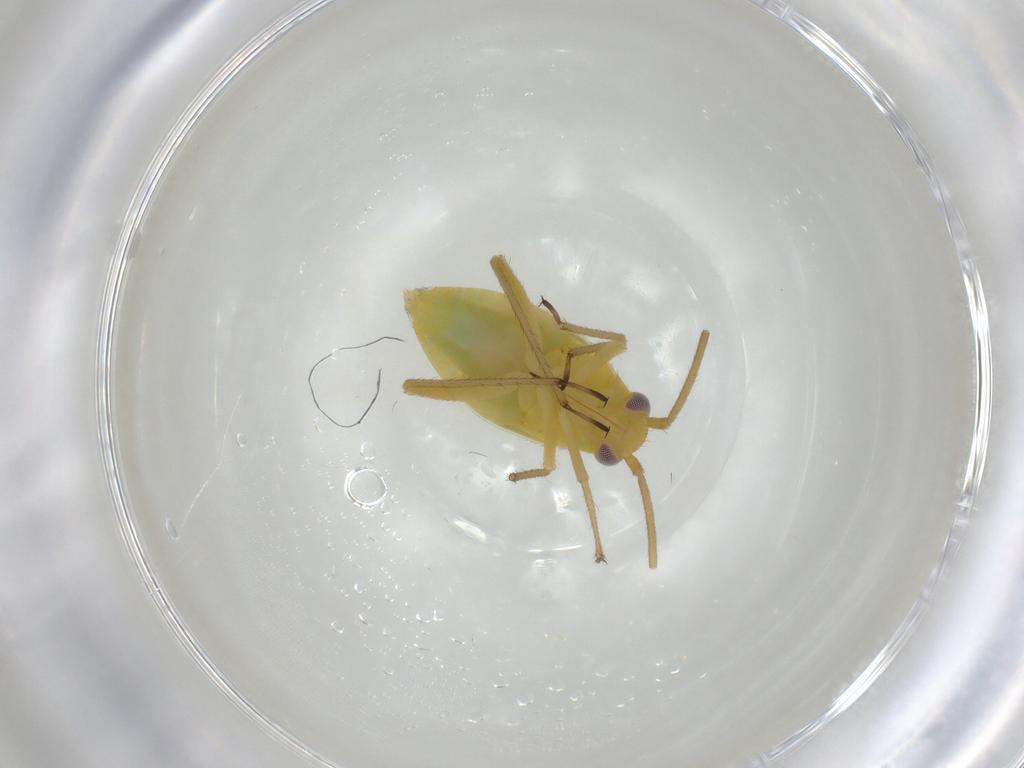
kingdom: Animalia
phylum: Arthropoda
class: Insecta
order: Hemiptera
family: Miridae
